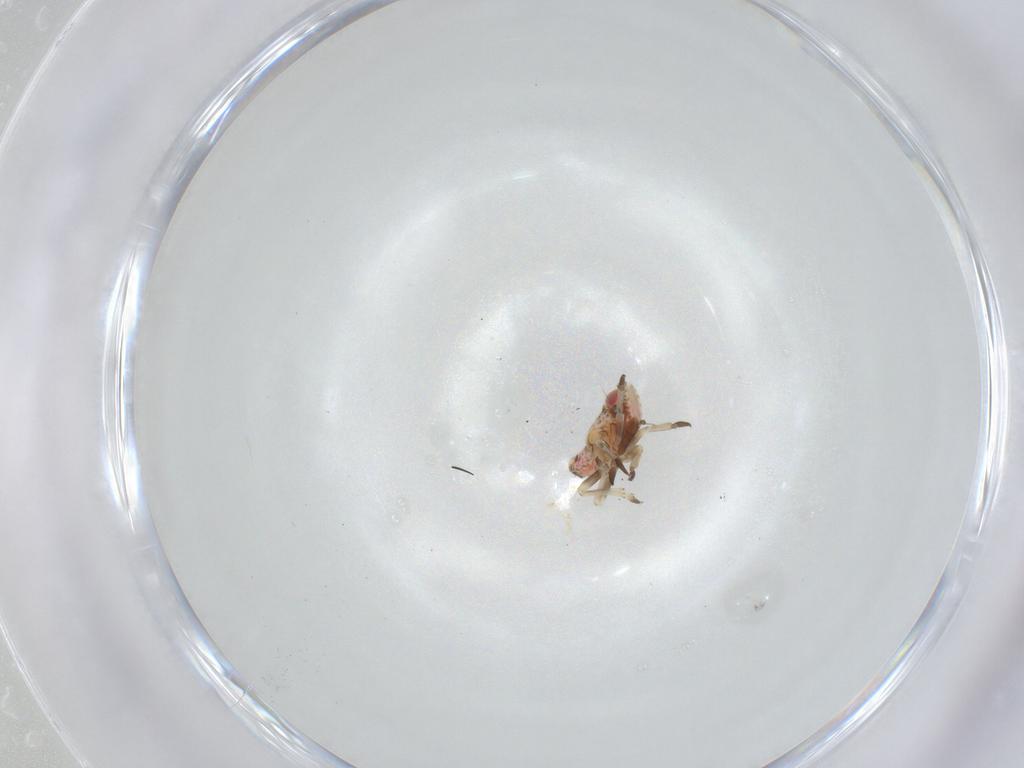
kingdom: Animalia
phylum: Arthropoda
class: Insecta
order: Hemiptera
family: Tropiduchidae
